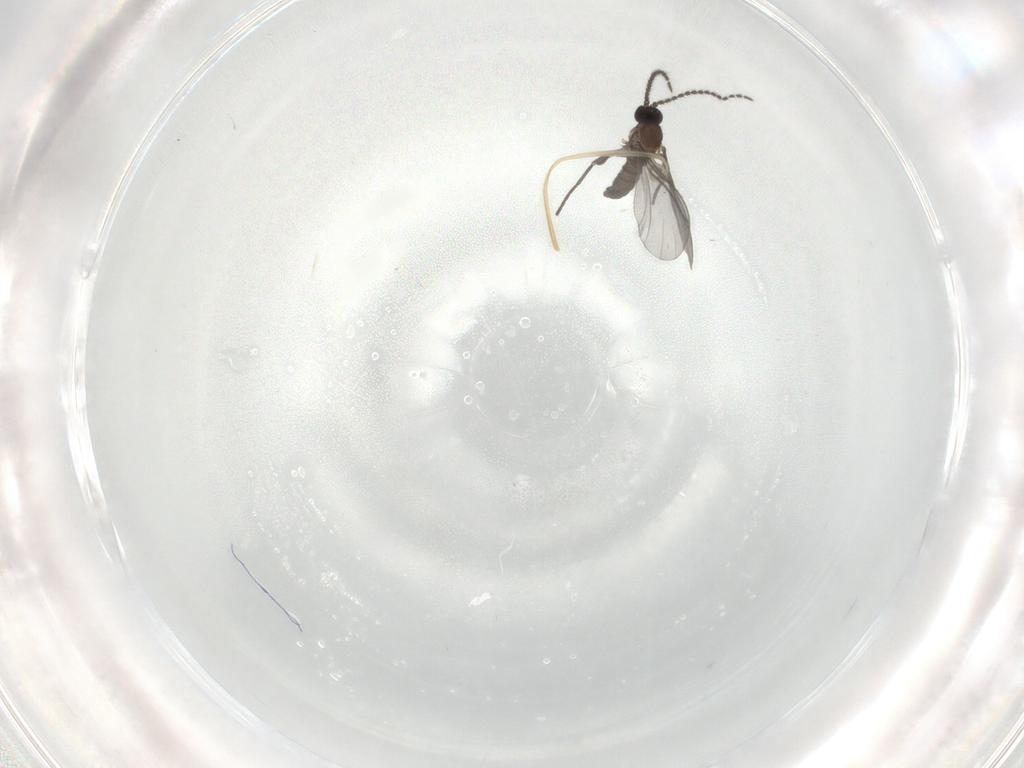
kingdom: Animalia
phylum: Arthropoda
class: Insecta
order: Diptera
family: Sciaridae
